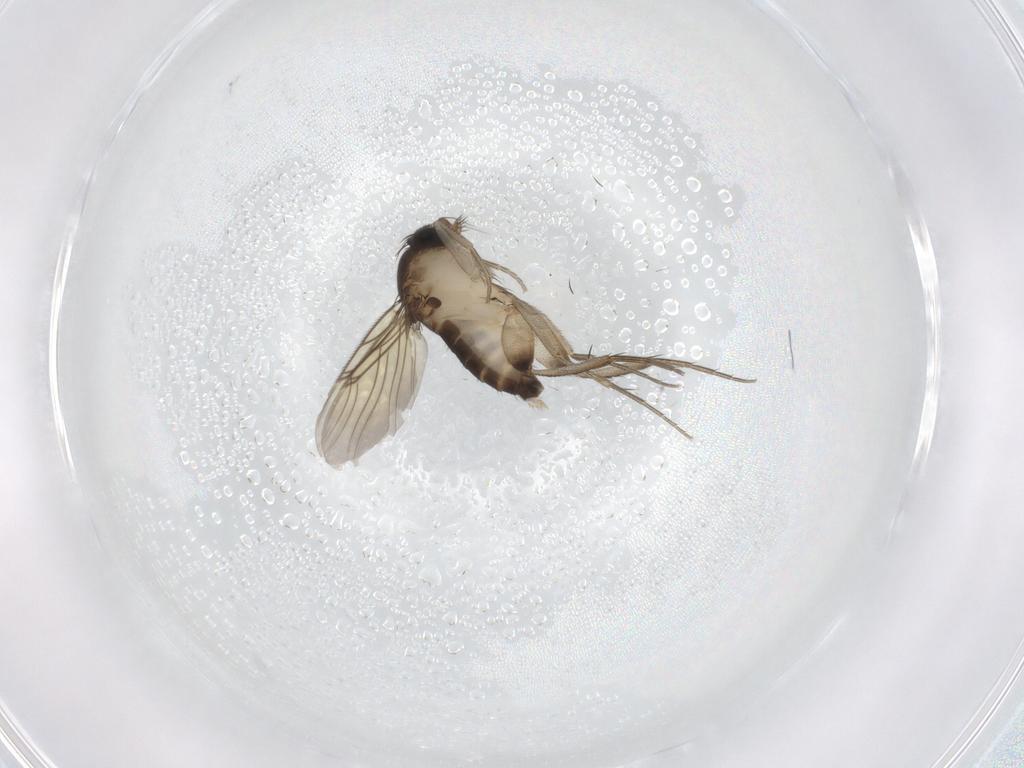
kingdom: Animalia
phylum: Arthropoda
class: Insecta
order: Diptera
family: Phoridae
